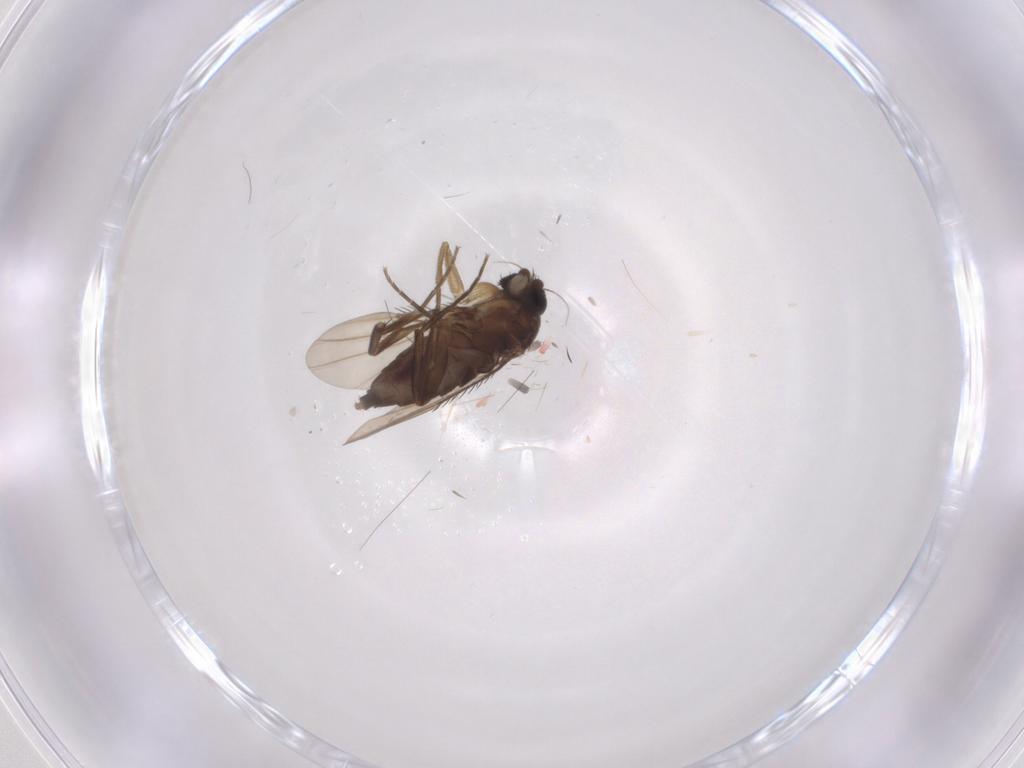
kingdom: Animalia
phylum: Arthropoda
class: Insecta
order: Diptera
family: Phoridae
